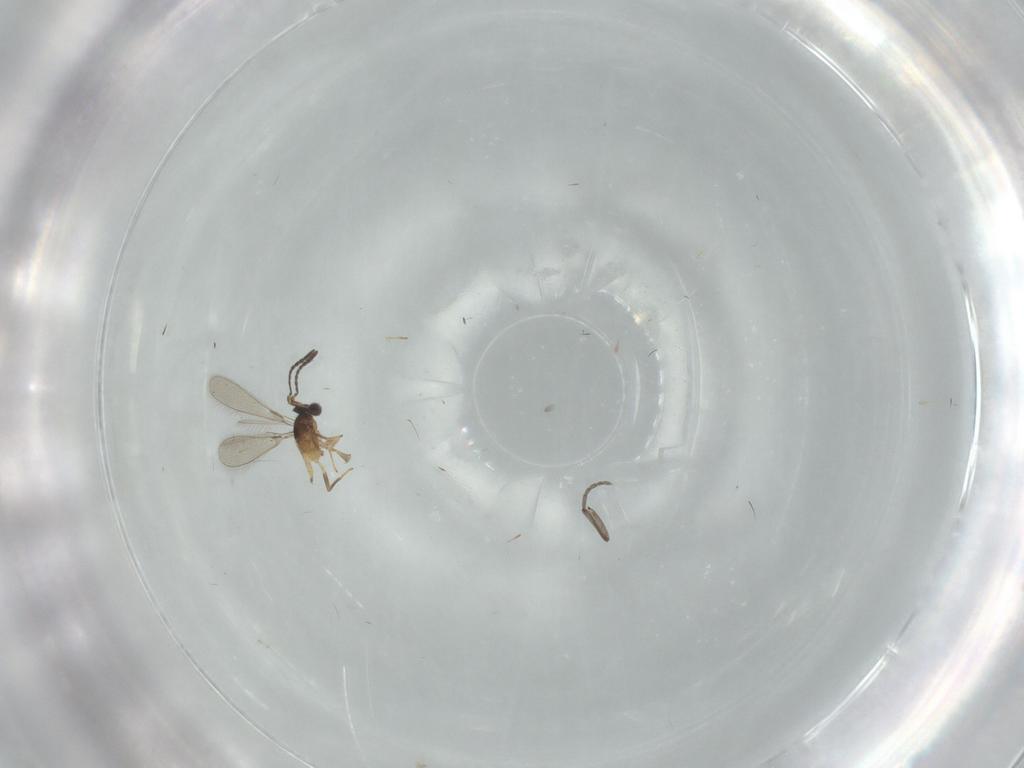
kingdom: Animalia
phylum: Arthropoda
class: Insecta
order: Hymenoptera
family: Mymaridae
